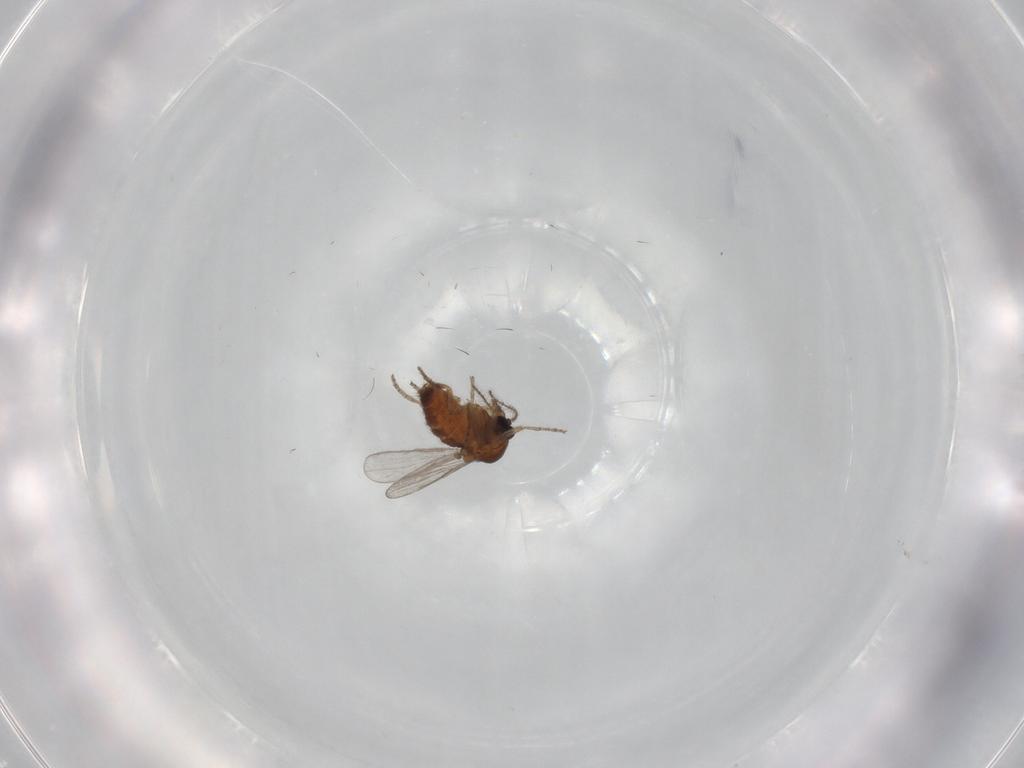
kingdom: Animalia
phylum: Arthropoda
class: Insecta
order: Diptera
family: Dolichopodidae
